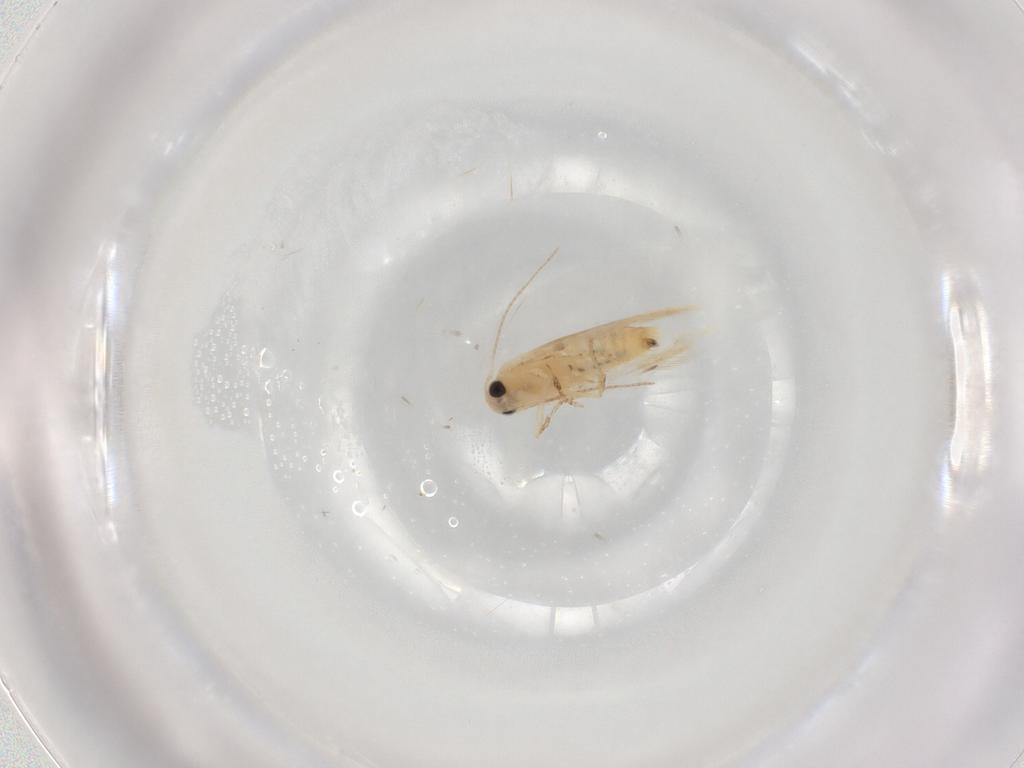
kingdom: Animalia
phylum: Arthropoda
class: Insecta
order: Lepidoptera
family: Depressariidae
